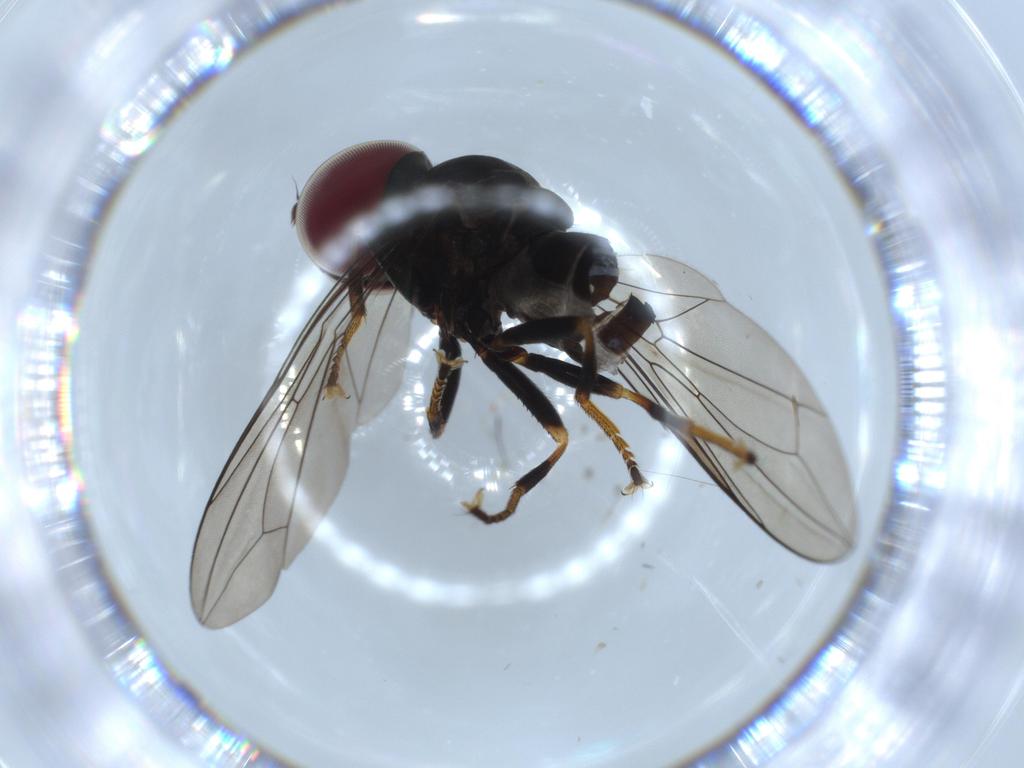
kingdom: Animalia
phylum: Arthropoda
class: Insecta
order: Diptera
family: Pipunculidae
